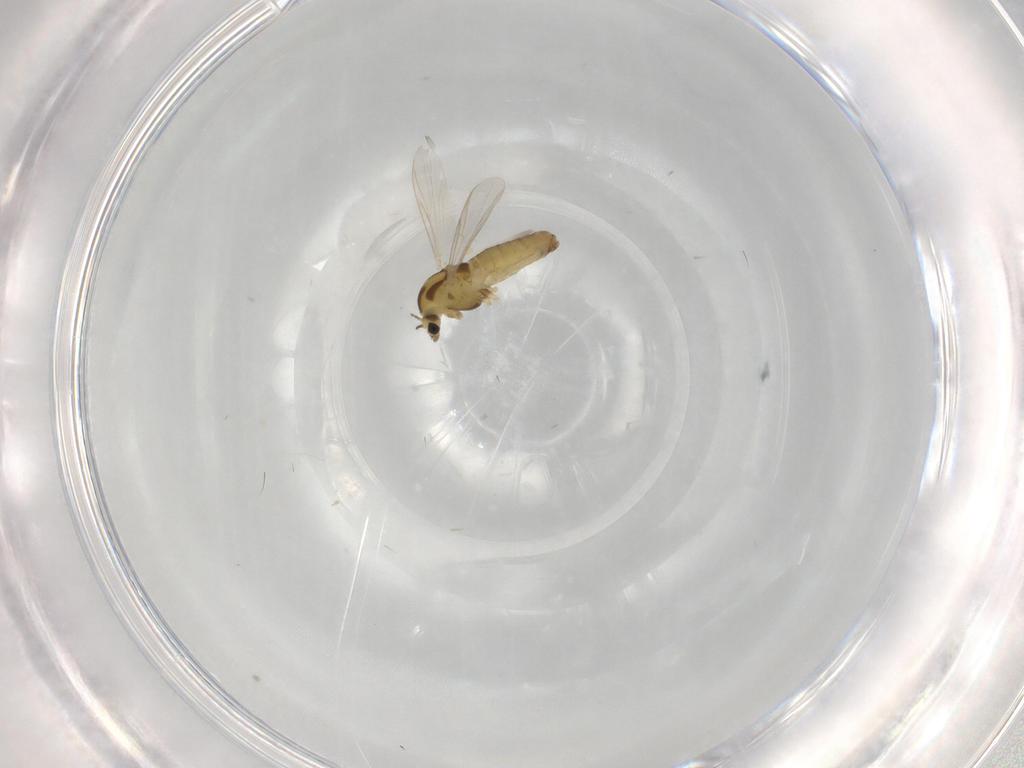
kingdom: Animalia
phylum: Arthropoda
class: Insecta
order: Diptera
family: Chironomidae
